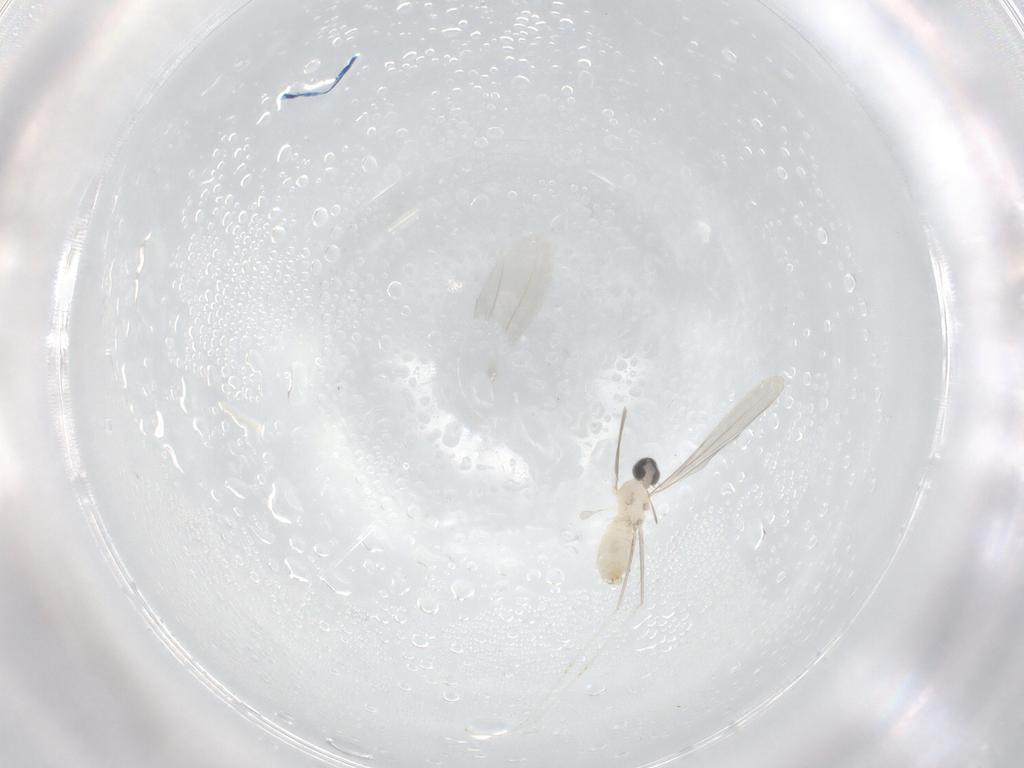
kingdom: Animalia
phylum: Arthropoda
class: Insecta
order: Diptera
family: Cecidomyiidae
